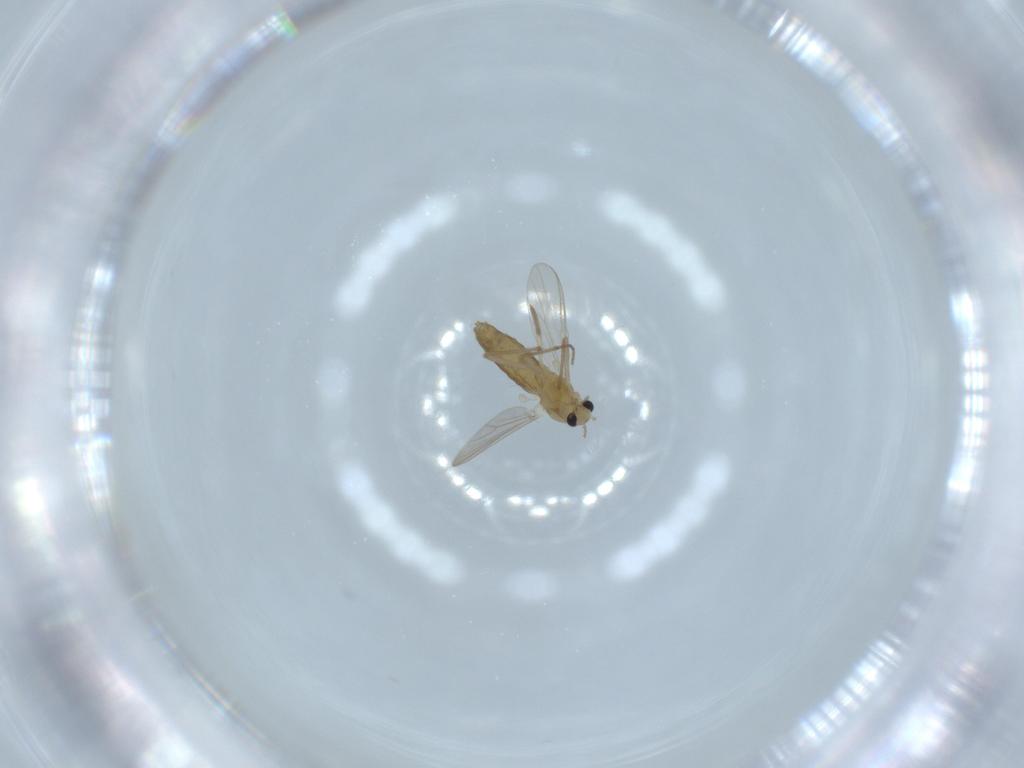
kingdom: Animalia
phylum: Arthropoda
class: Insecta
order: Diptera
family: Chironomidae
